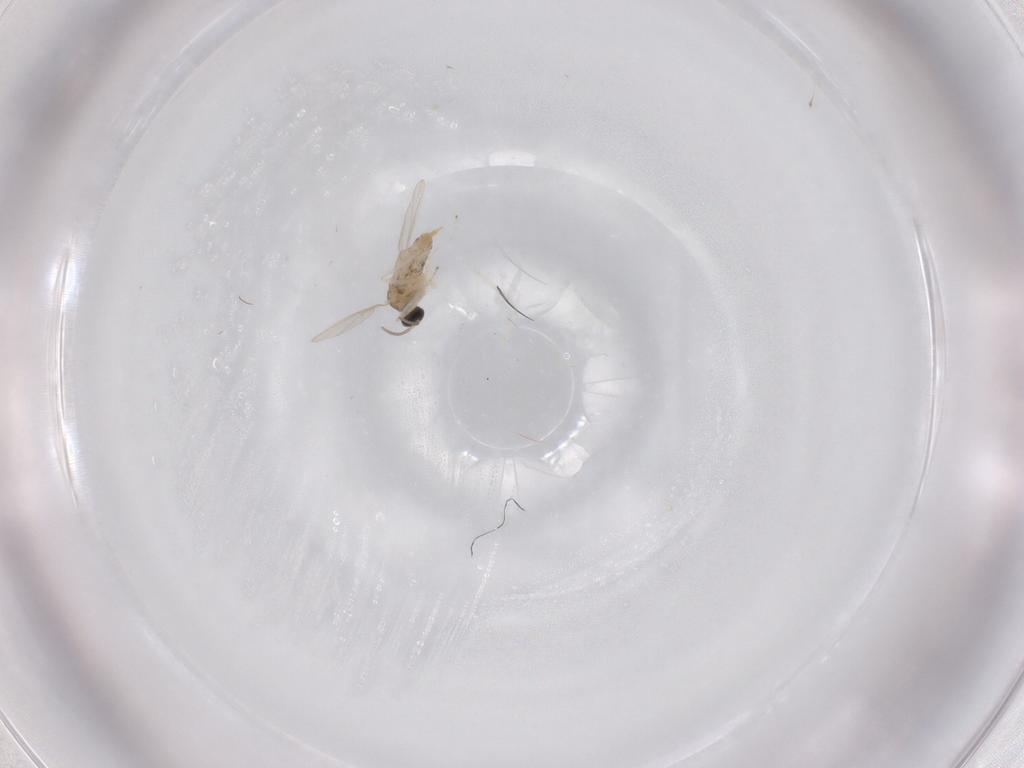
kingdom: Animalia
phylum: Arthropoda
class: Insecta
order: Diptera
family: Cecidomyiidae
